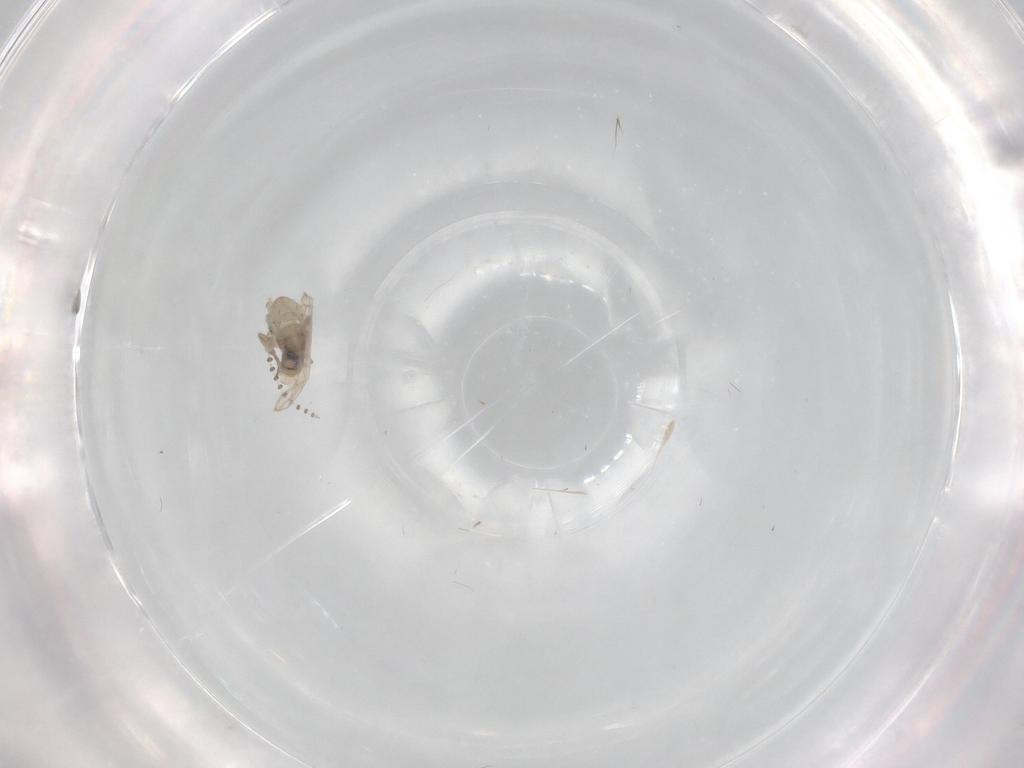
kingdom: Animalia
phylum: Arthropoda
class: Insecta
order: Diptera
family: Psychodidae
